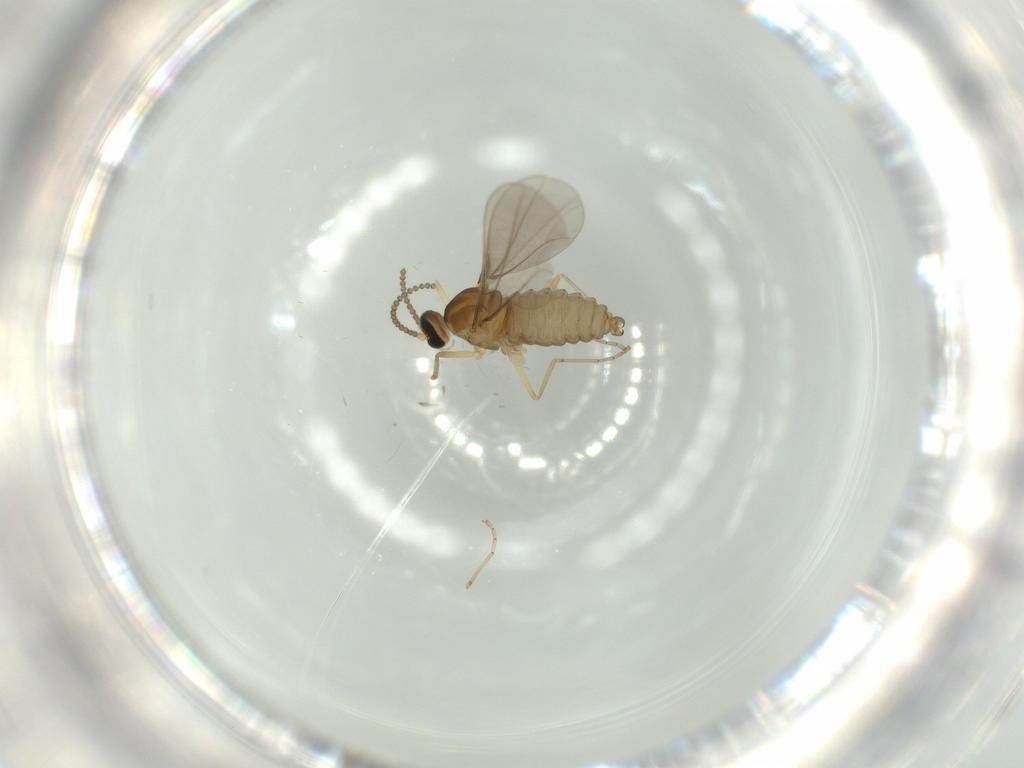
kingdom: Animalia
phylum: Arthropoda
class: Insecta
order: Diptera
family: Cecidomyiidae
